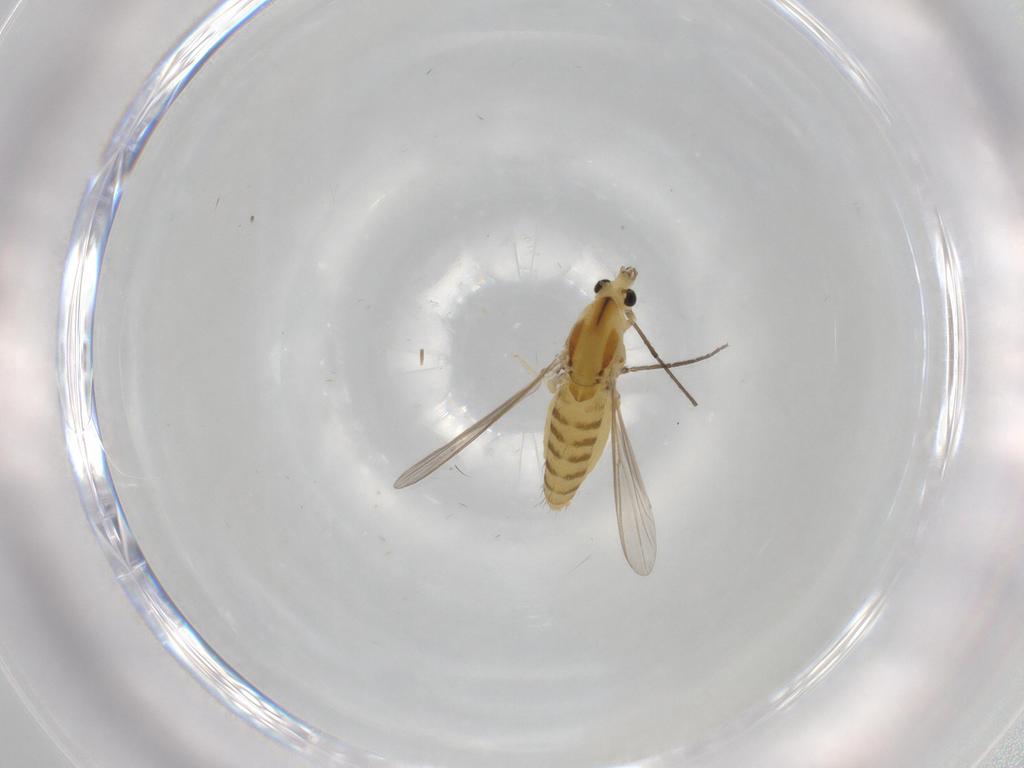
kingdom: Animalia
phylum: Arthropoda
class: Insecta
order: Diptera
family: Chironomidae
